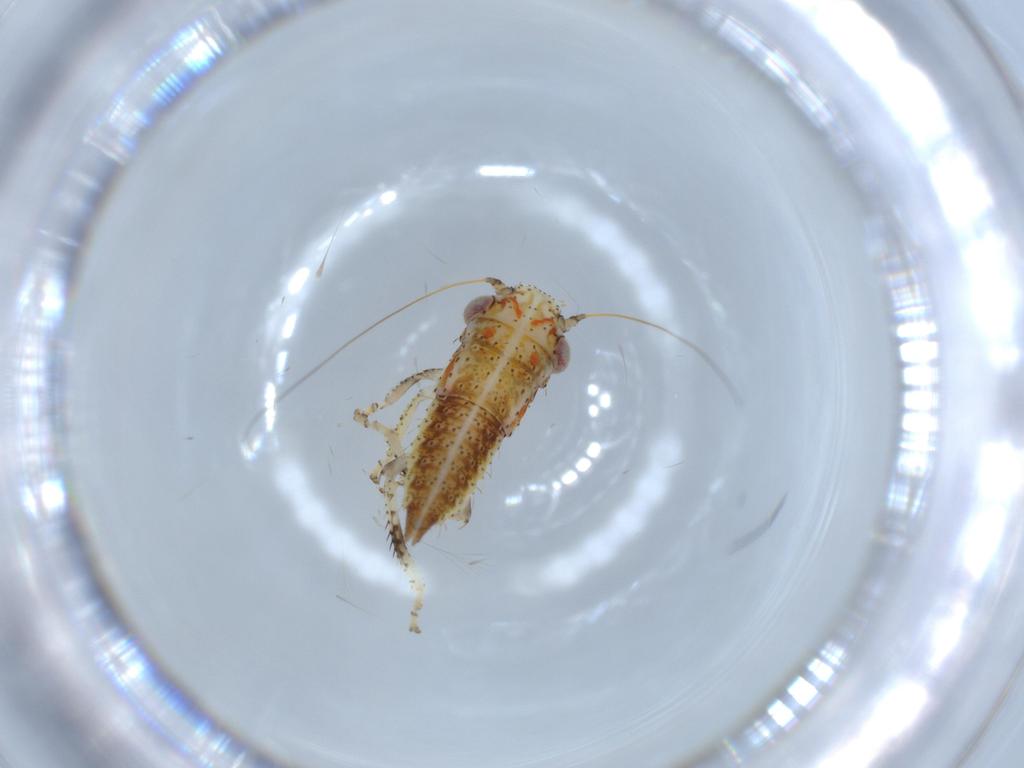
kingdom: Animalia
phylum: Arthropoda
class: Insecta
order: Hemiptera
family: Cicadellidae
